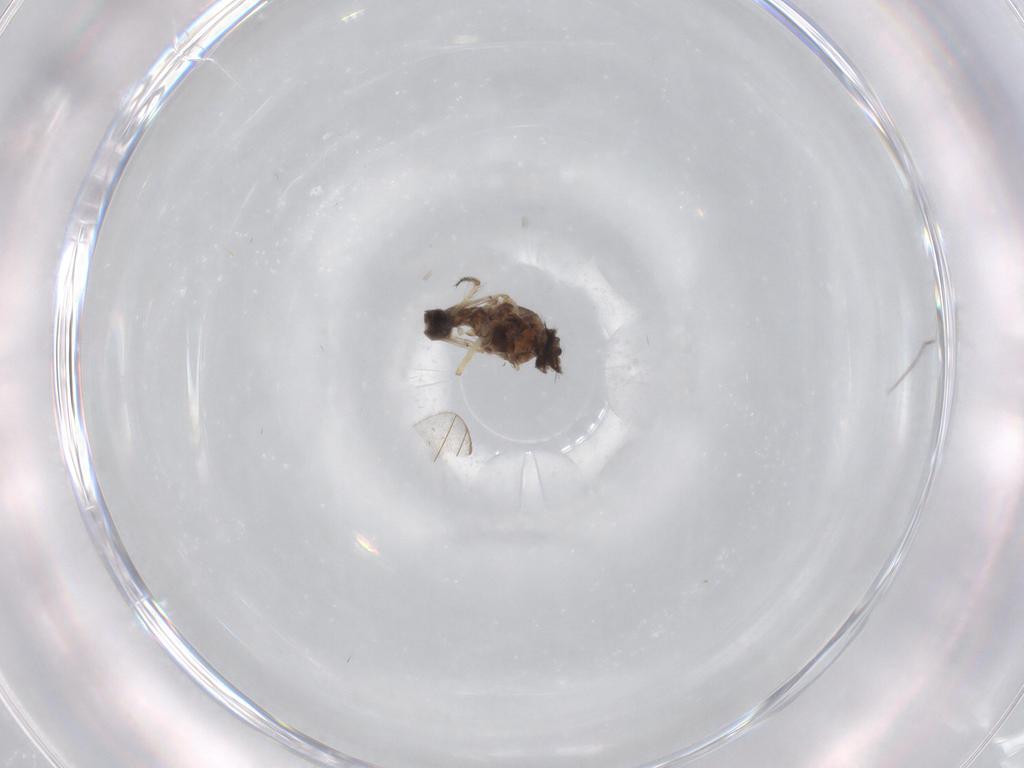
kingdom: Animalia
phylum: Arthropoda
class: Insecta
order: Diptera
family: Ceratopogonidae
